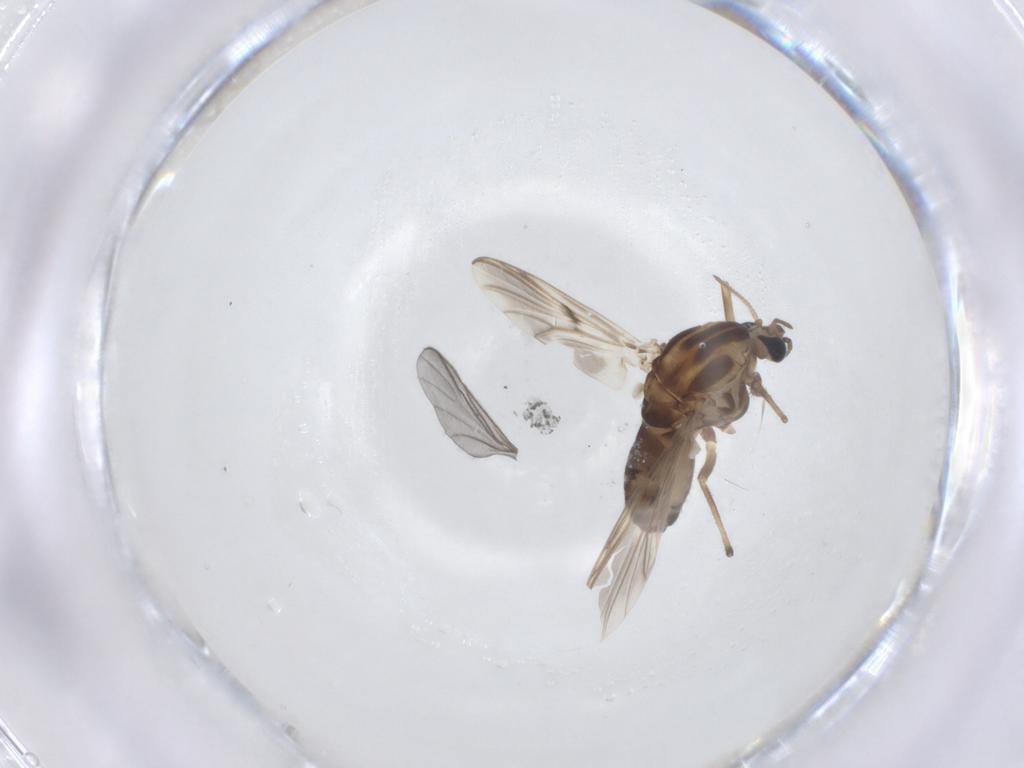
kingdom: Animalia
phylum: Arthropoda
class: Insecta
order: Diptera
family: Chironomidae
